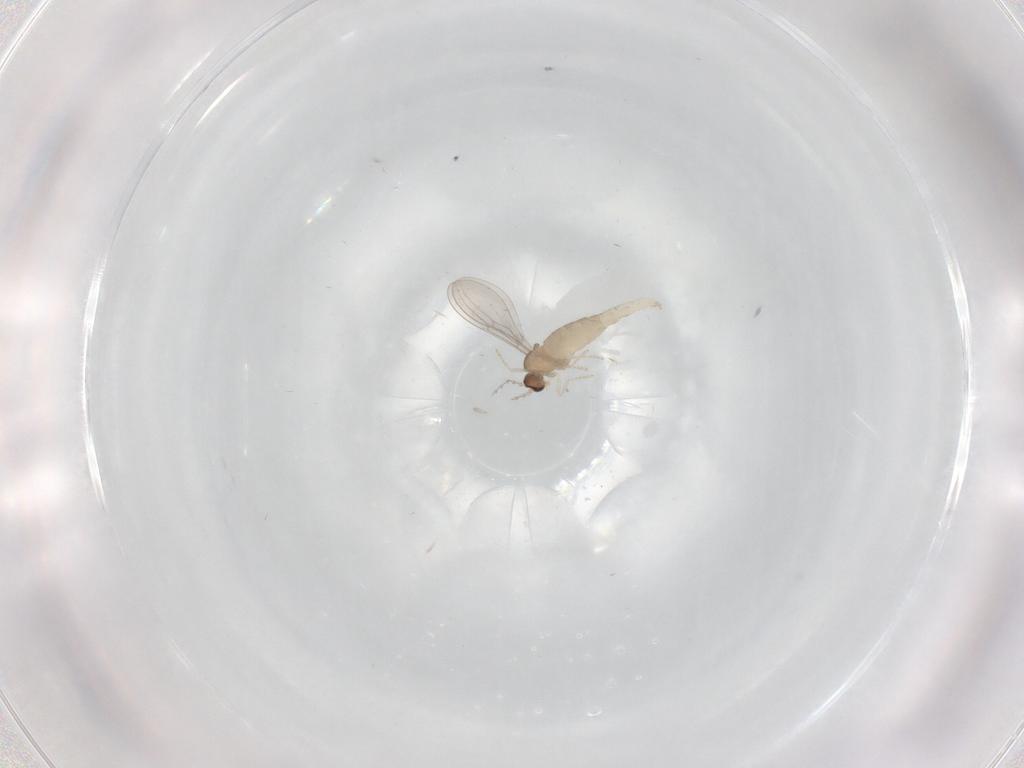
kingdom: Animalia
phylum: Arthropoda
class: Insecta
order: Diptera
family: Cecidomyiidae
